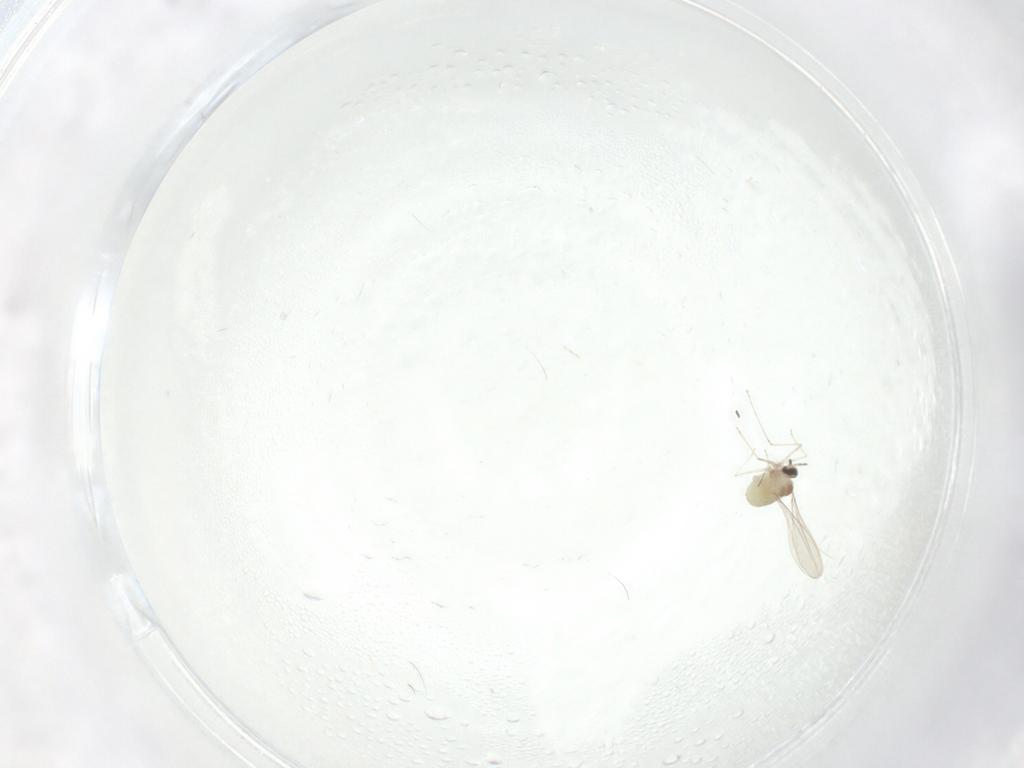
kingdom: Animalia
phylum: Arthropoda
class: Insecta
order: Diptera
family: Cecidomyiidae
